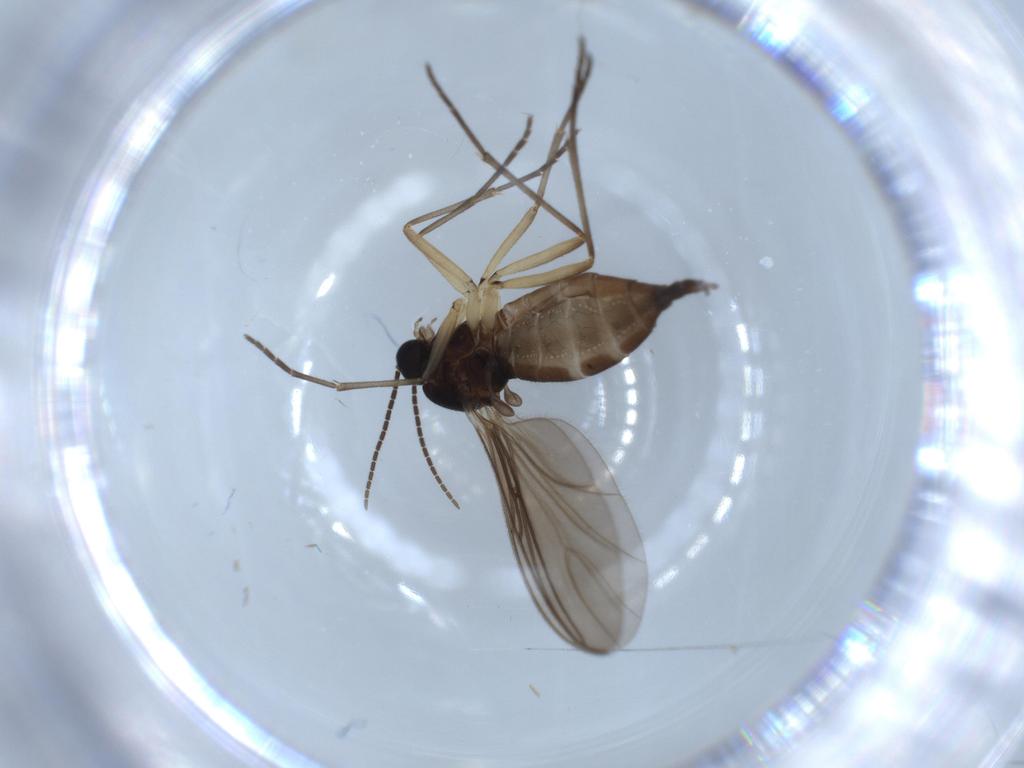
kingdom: Animalia
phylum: Arthropoda
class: Insecta
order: Diptera
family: Sciaridae
